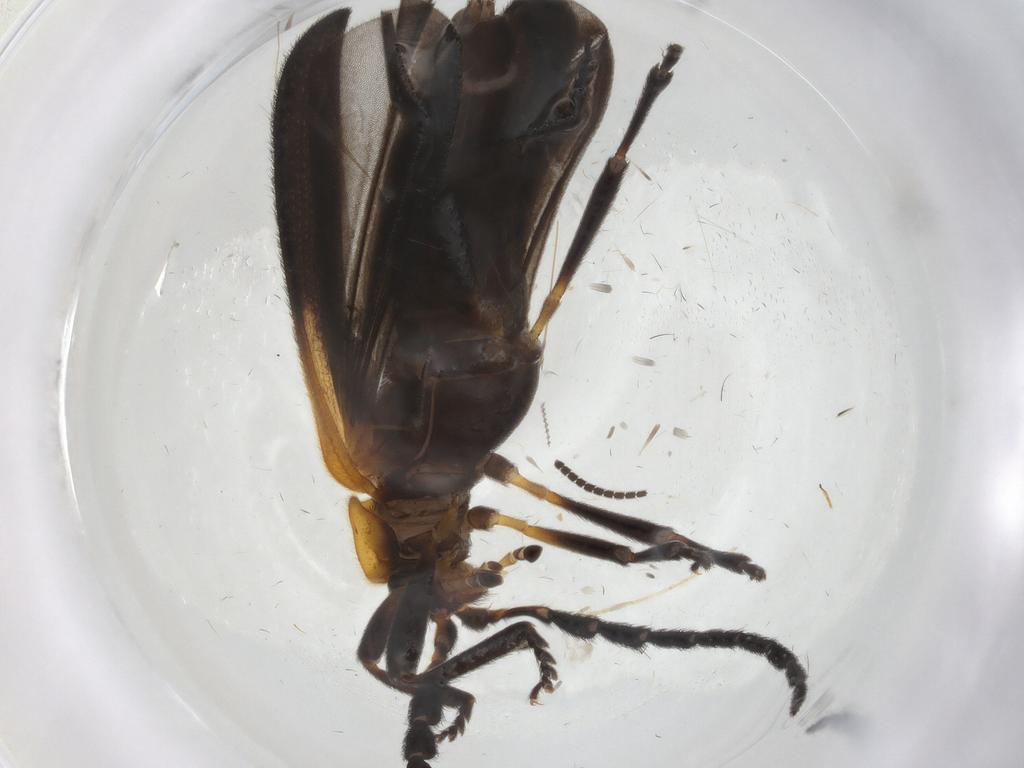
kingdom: Animalia
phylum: Arthropoda
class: Insecta
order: Coleoptera
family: Lycidae
